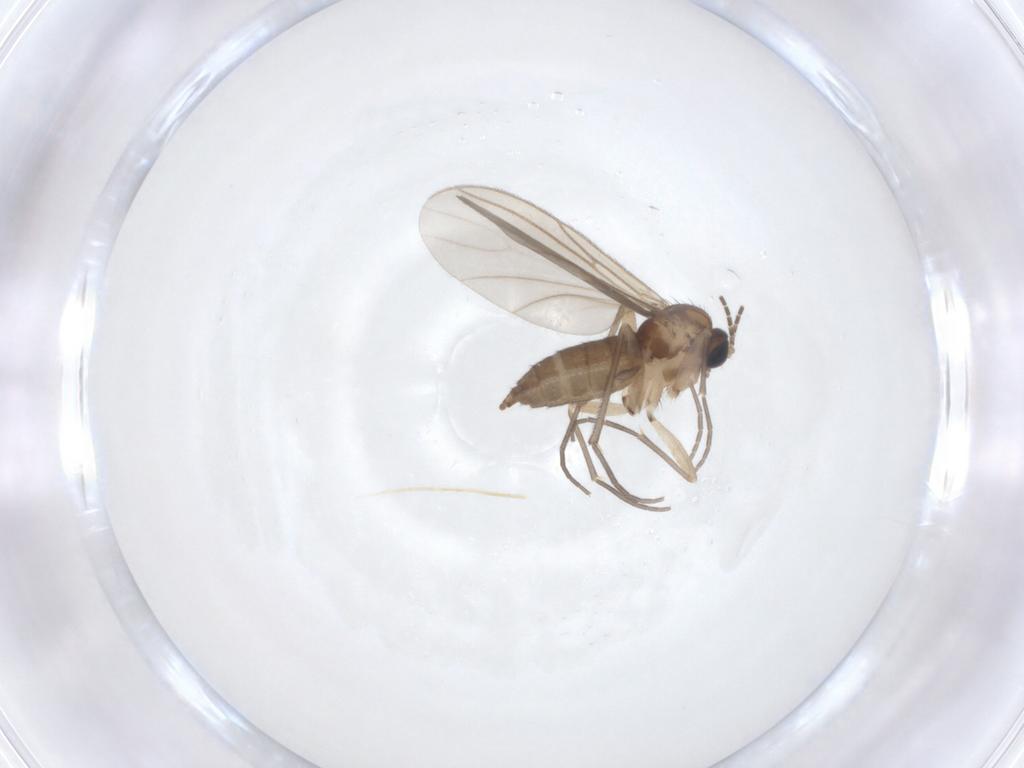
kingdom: Animalia
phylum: Arthropoda
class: Insecta
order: Diptera
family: Sciaridae
